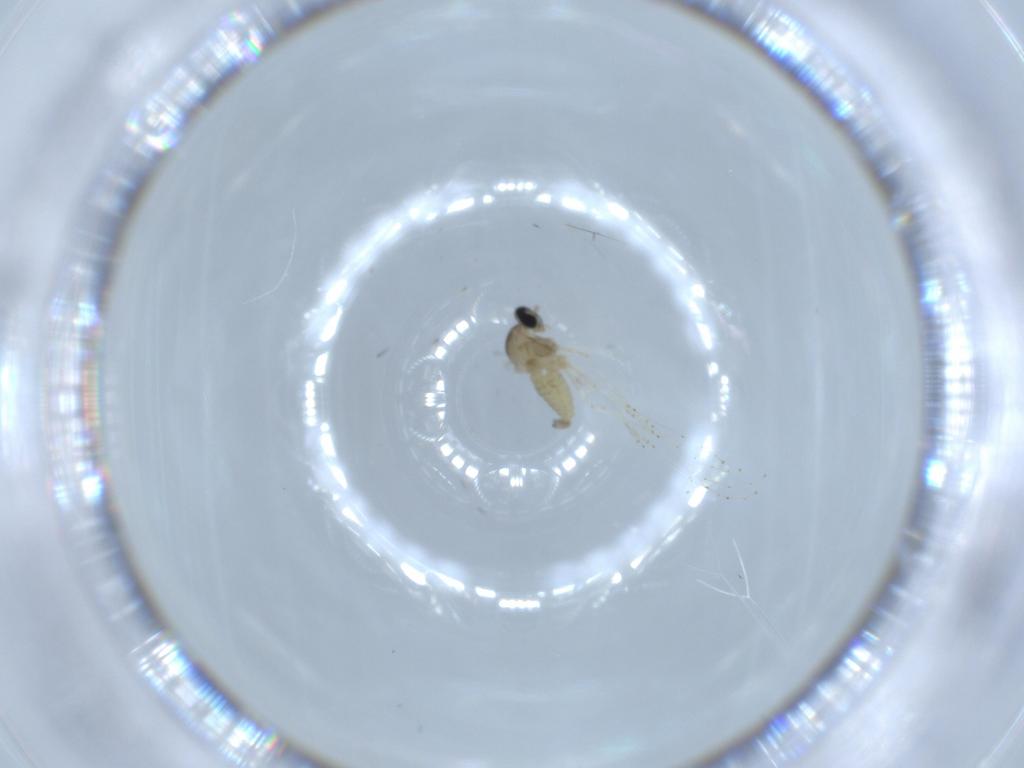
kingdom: Animalia
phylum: Arthropoda
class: Insecta
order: Diptera
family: Cecidomyiidae
